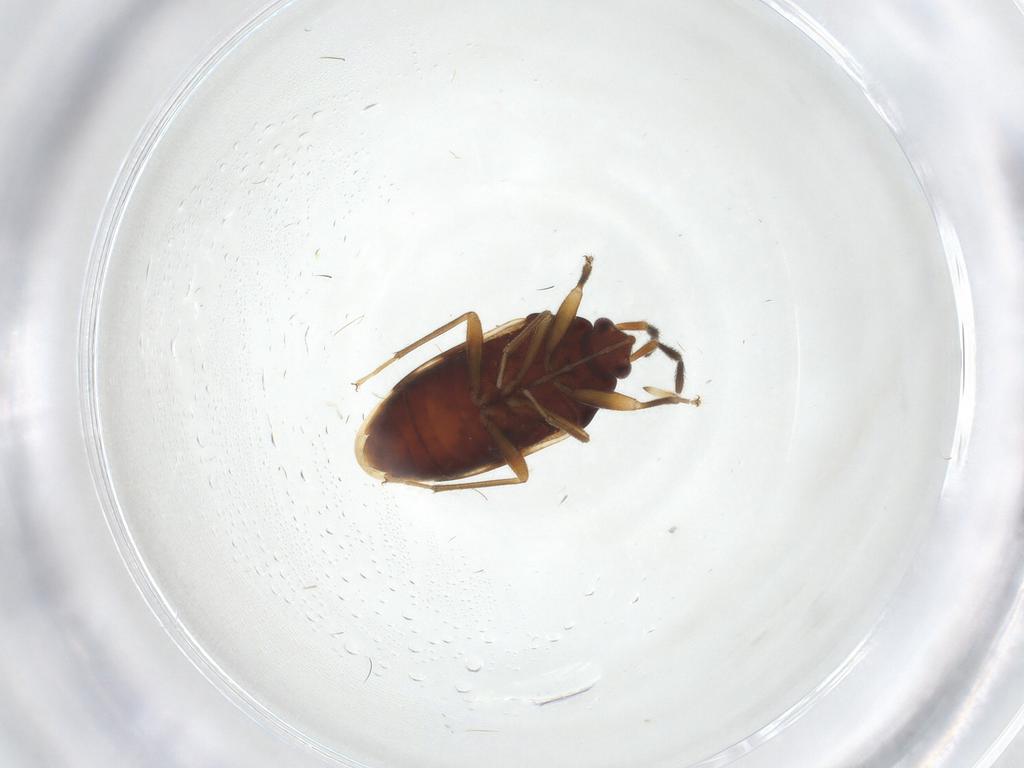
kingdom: Animalia
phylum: Arthropoda
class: Insecta
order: Hemiptera
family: Rhyparochromidae
